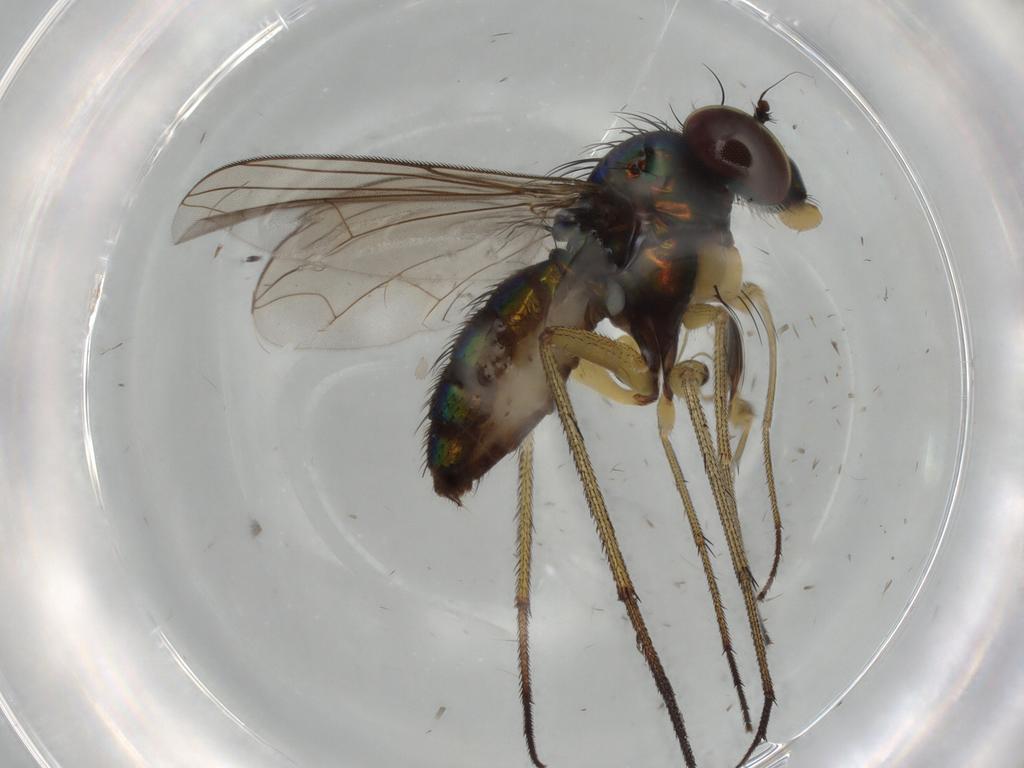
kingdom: Animalia
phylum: Arthropoda
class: Insecta
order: Diptera
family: Dolichopodidae
